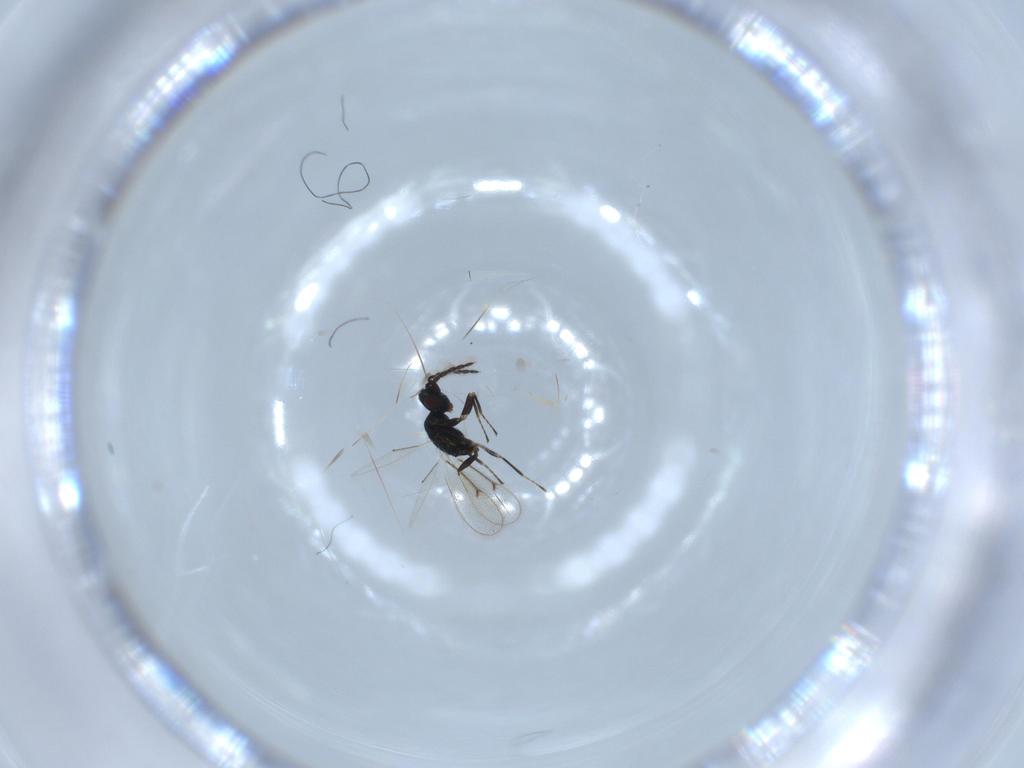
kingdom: Animalia
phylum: Arthropoda
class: Insecta
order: Hymenoptera
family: Eulophidae
